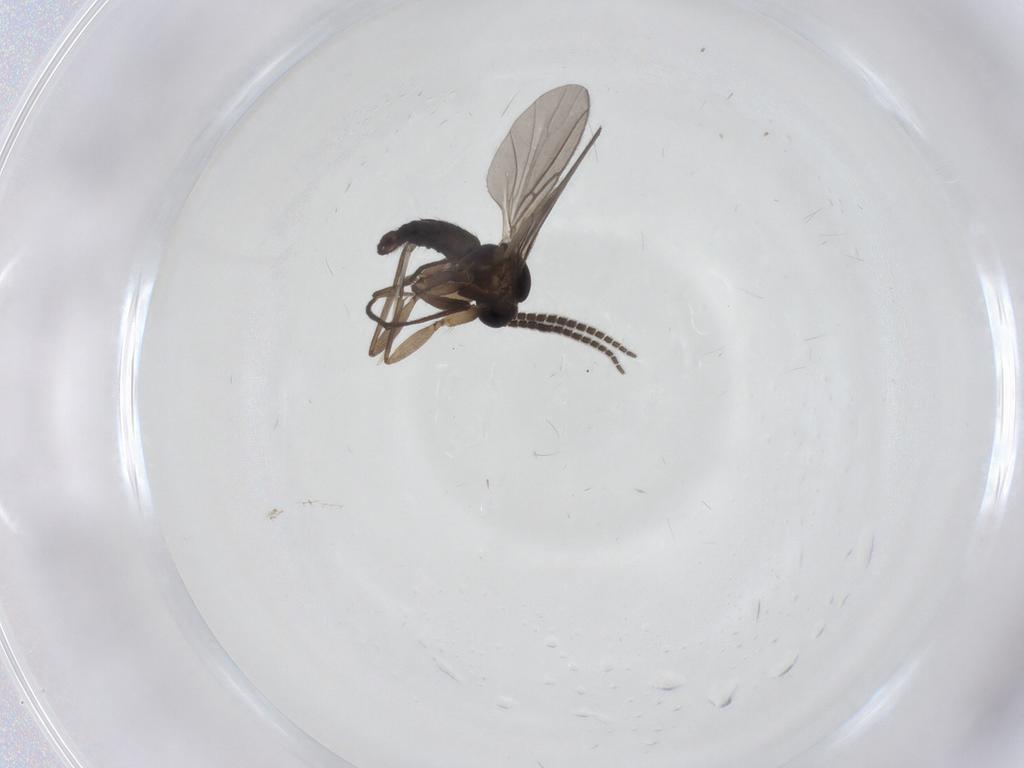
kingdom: Animalia
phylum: Arthropoda
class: Insecta
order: Diptera
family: Sciaridae
